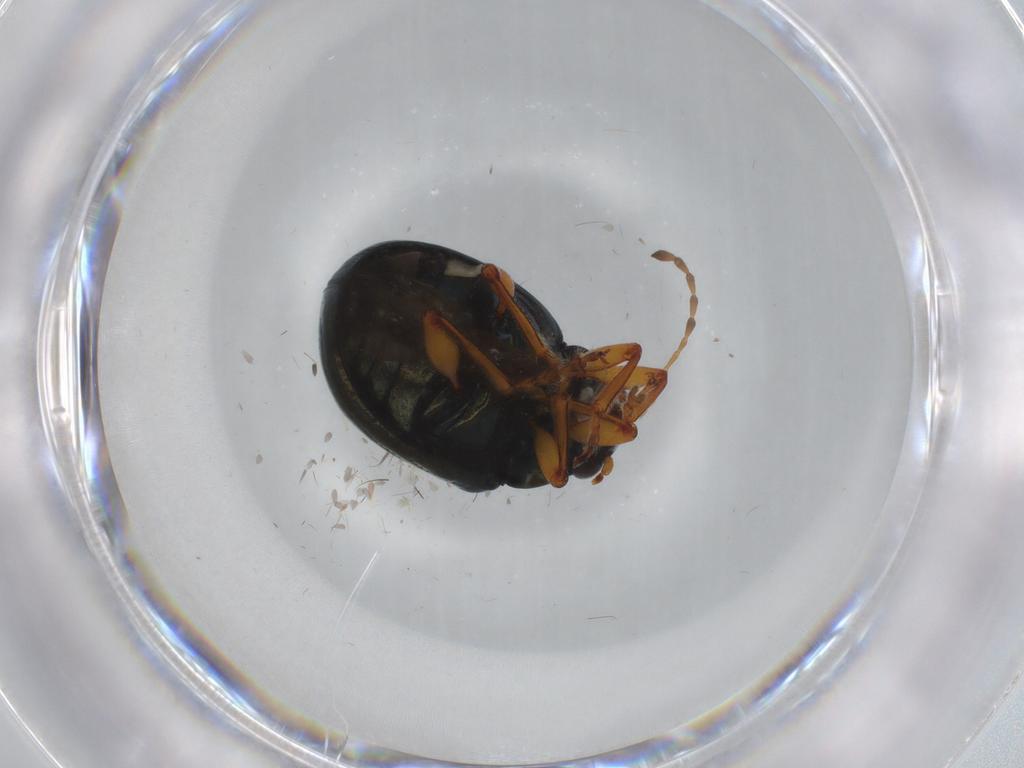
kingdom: Animalia
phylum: Arthropoda
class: Insecta
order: Coleoptera
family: Ptilodactylidae
